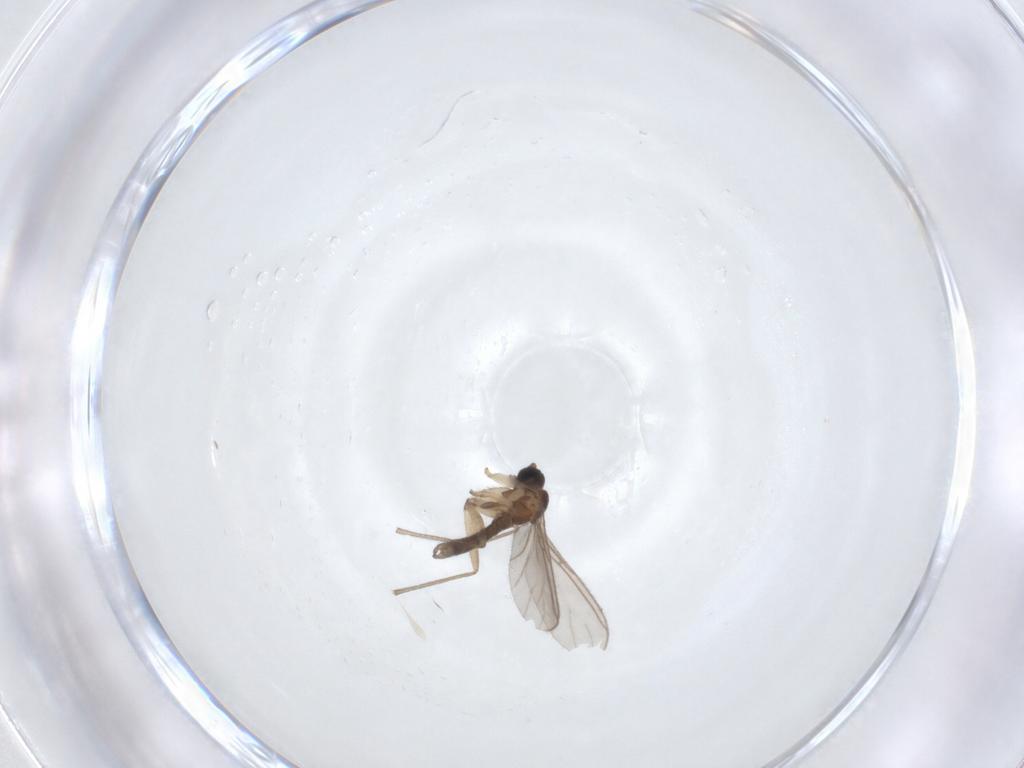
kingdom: Animalia
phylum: Arthropoda
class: Insecta
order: Diptera
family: Sciaridae
